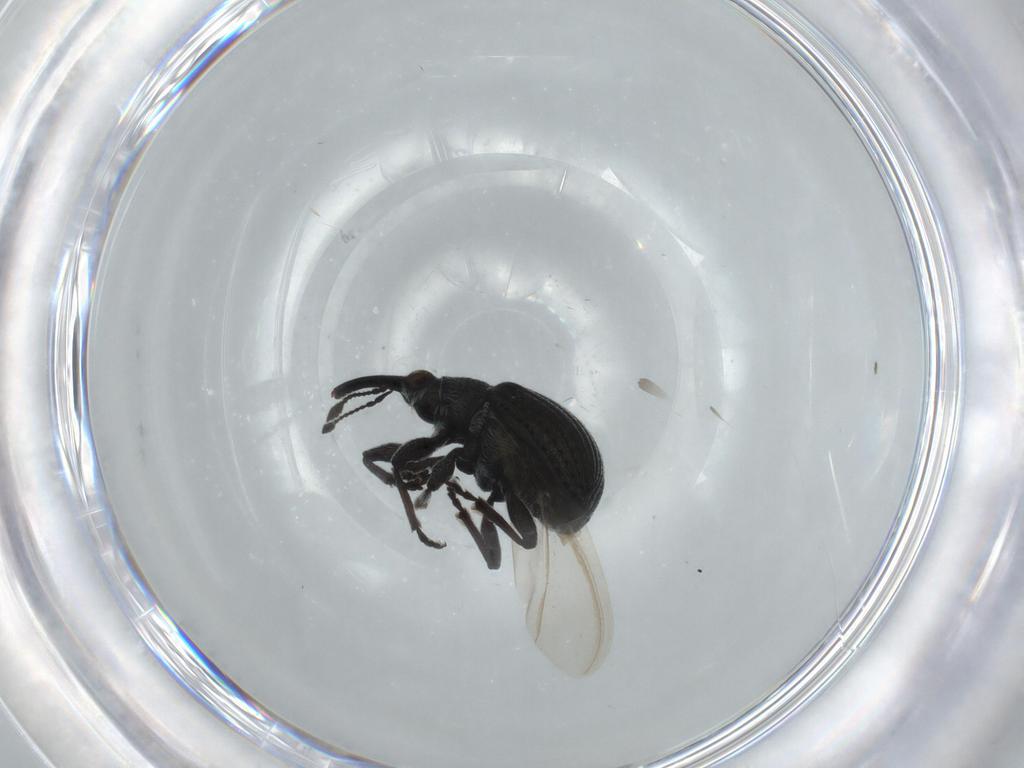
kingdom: Animalia
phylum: Arthropoda
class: Insecta
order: Coleoptera
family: Brentidae
